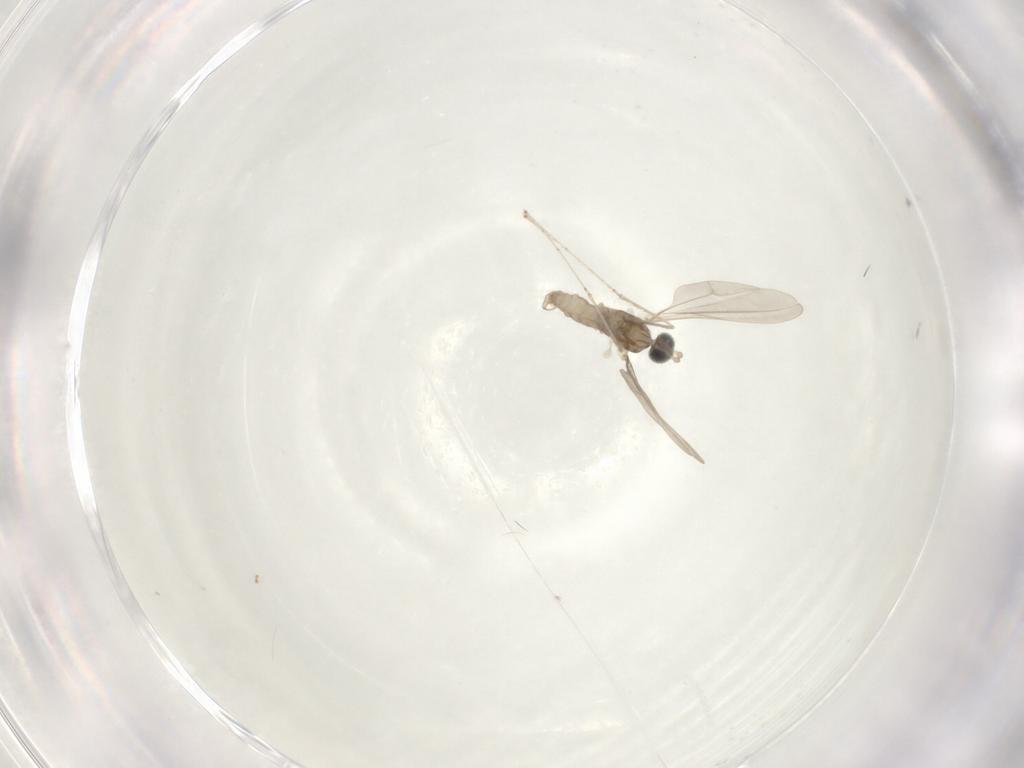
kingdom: Animalia
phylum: Arthropoda
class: Insecta
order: Diptera
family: Cecidomyiidae
